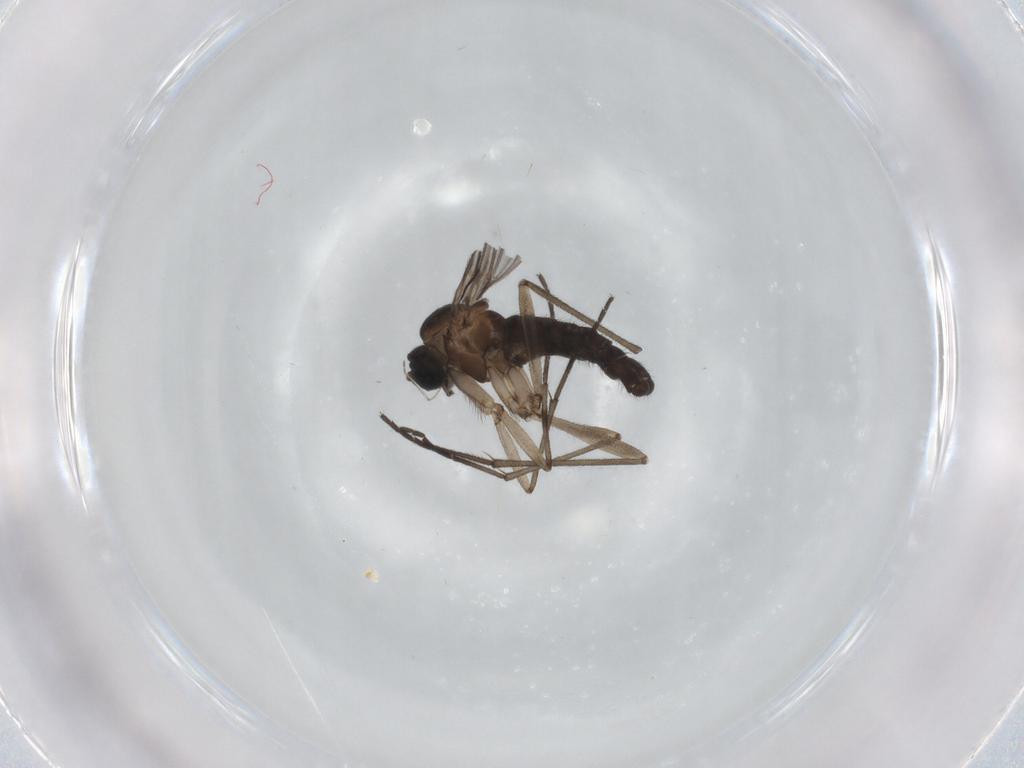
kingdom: Animalia
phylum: Arthropoda
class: Insecta
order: Diptera
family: Sciaridae
